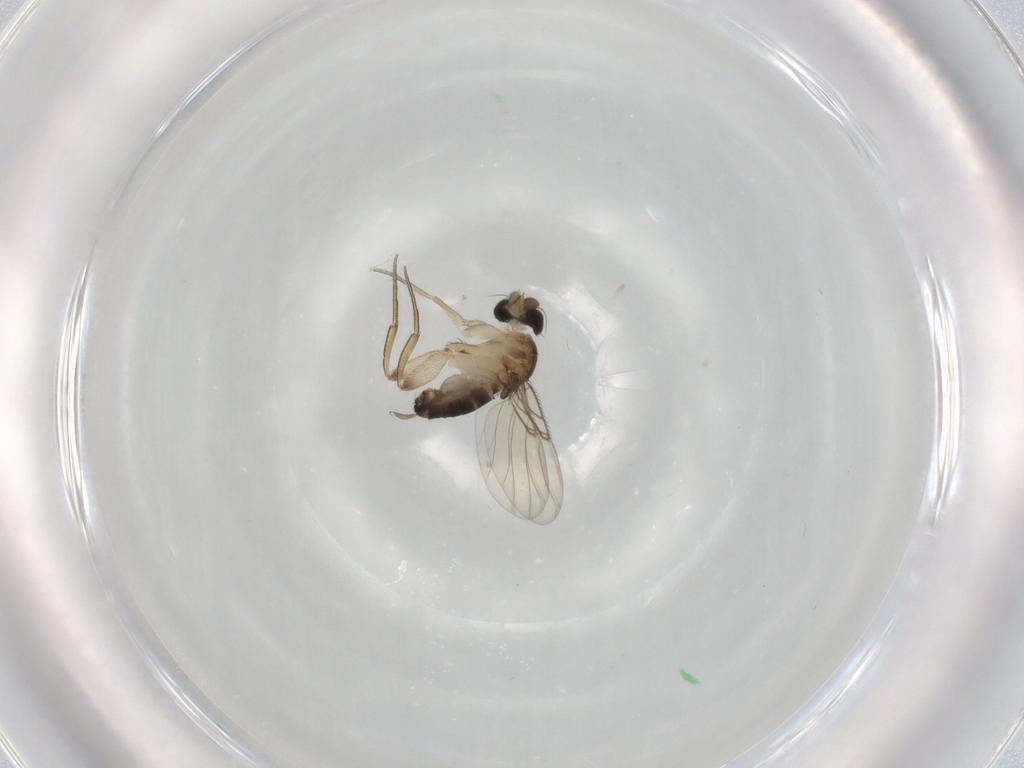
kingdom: Animalia
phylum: Arthropoda
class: Insecta
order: Diptera
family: Phoridae
